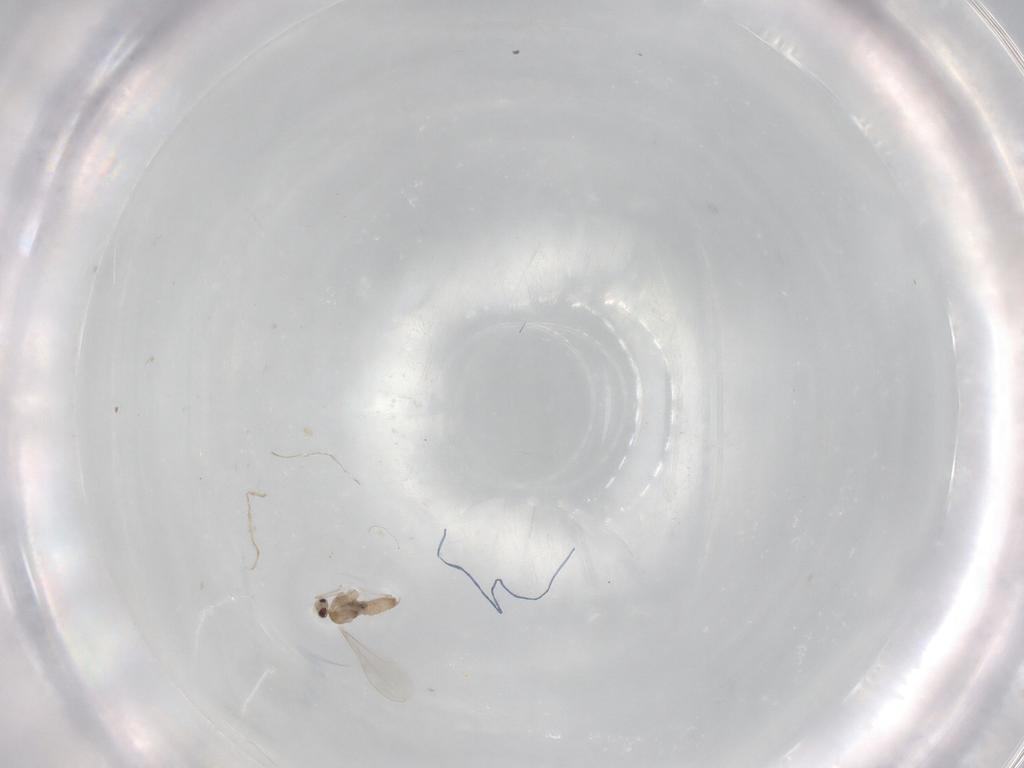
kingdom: Animalia
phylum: Arthropoda
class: Insecta
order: Diptera
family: Cecidomyiidae
